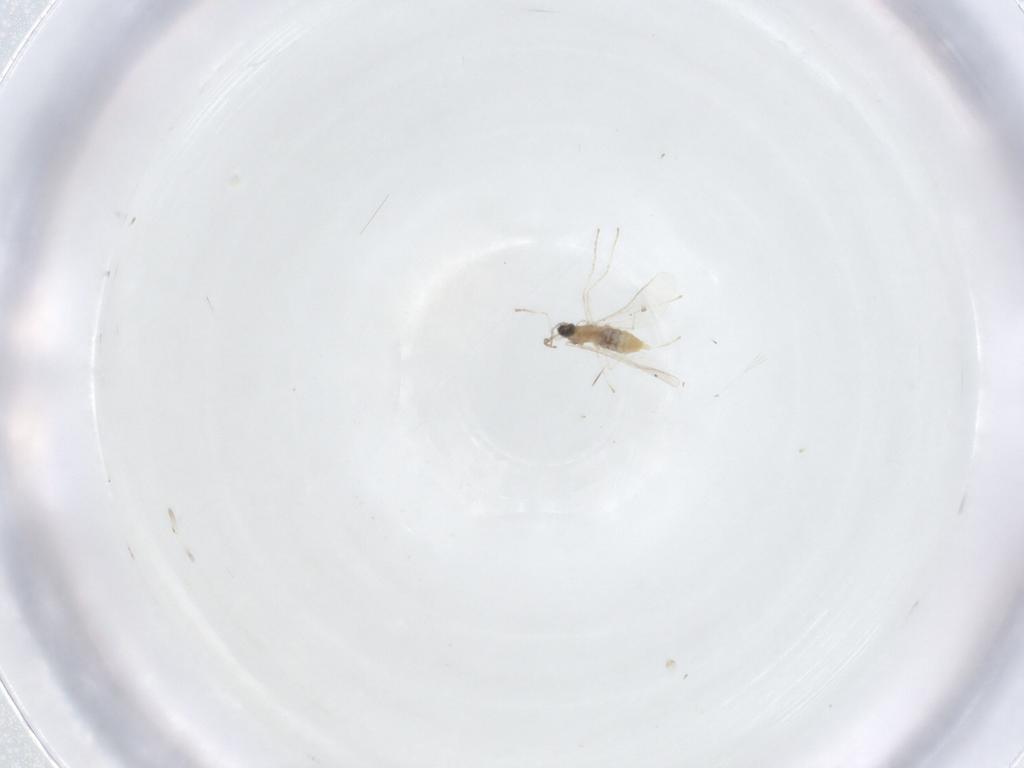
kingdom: Animalia
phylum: Arthropoda
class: Insecta
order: Diptera
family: Cecidomyiidae
